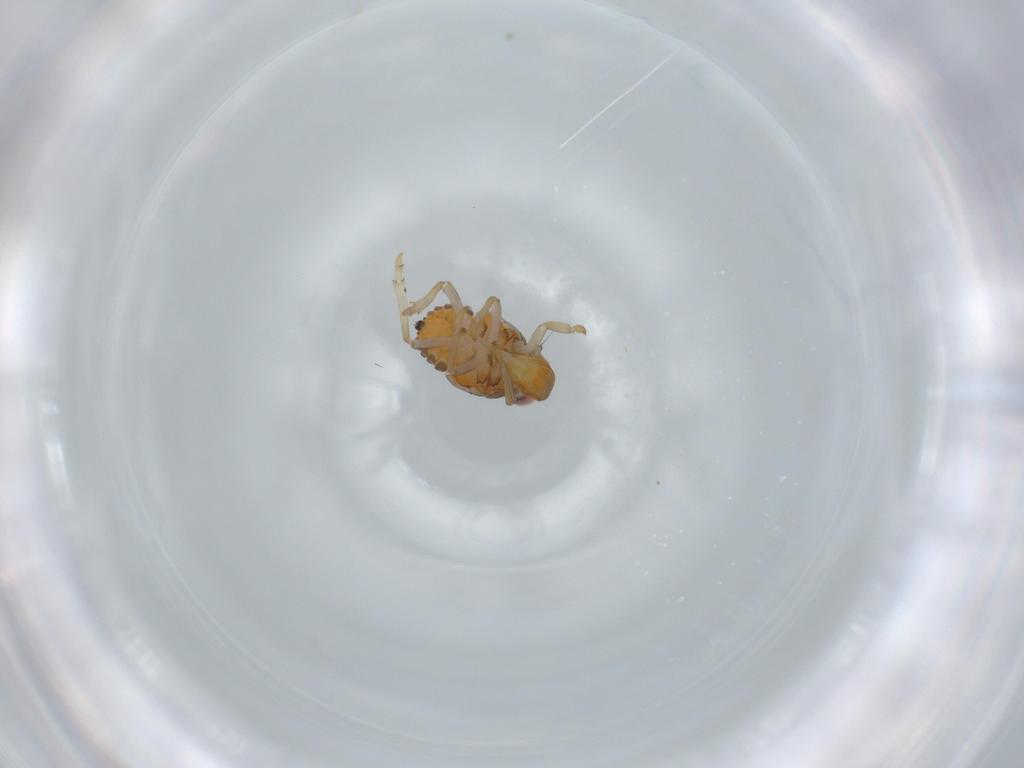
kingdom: Animalia
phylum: Arthropoda
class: Insecta
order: Hemiptera
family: Issidae
